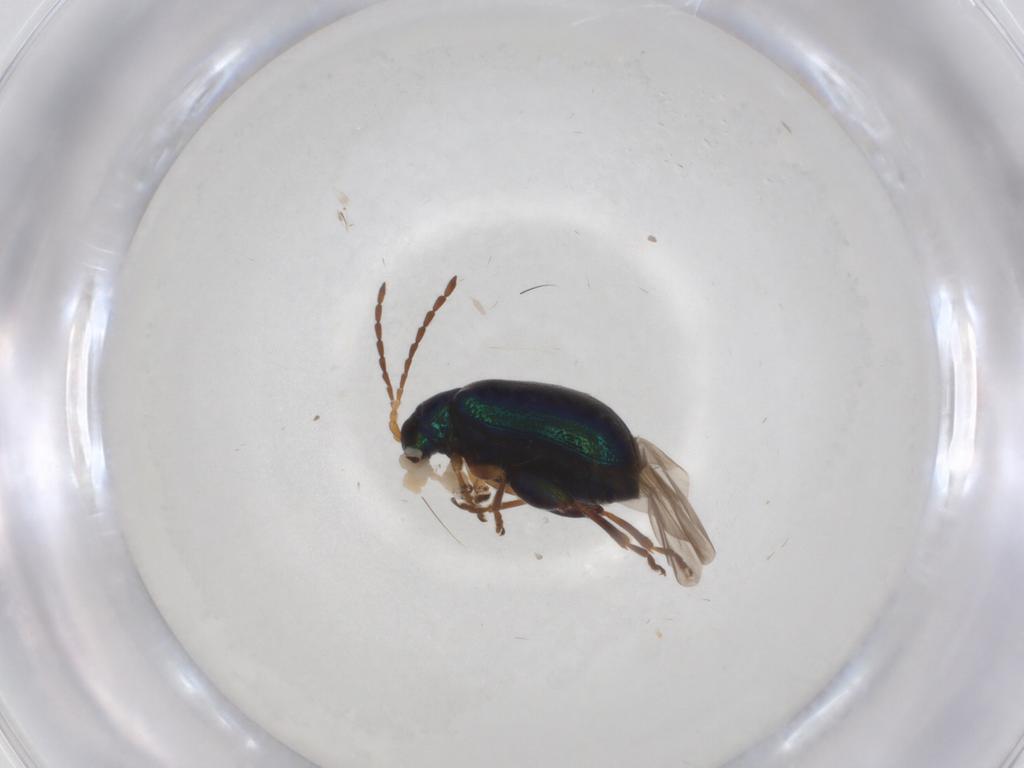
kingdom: Animalia
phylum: Arthropoda
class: Insecta
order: Coleoptera
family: Chrysomelidae
